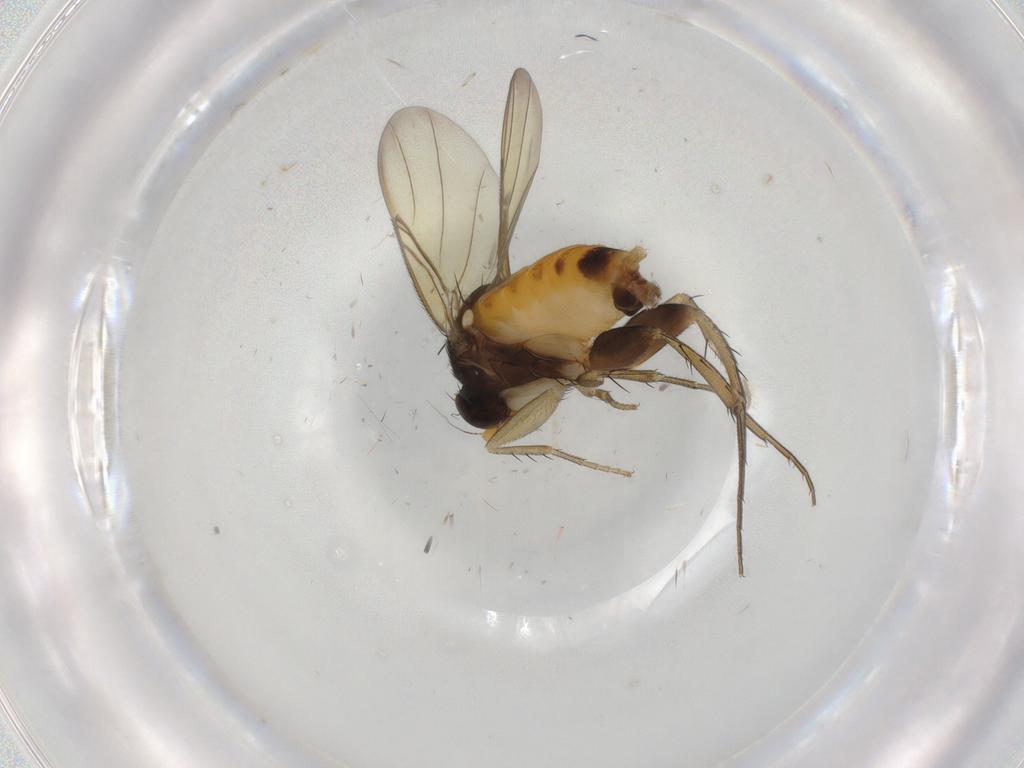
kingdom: Animalia
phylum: Arthropoda
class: Insecta
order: Diptera
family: Phoridae
